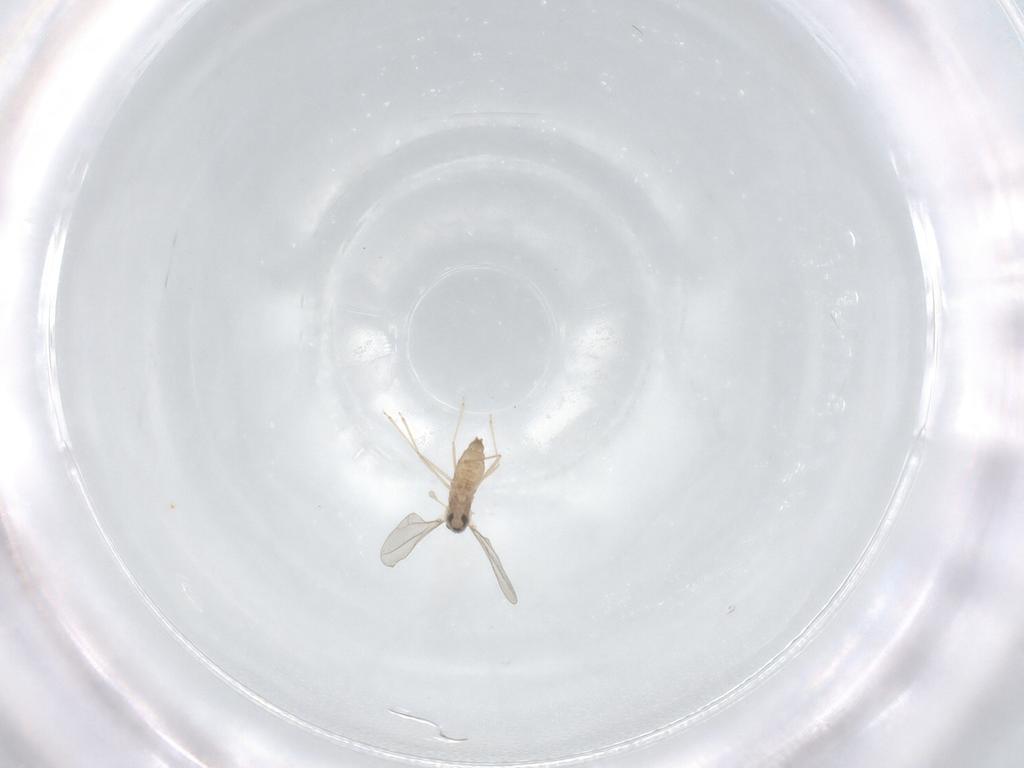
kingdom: Animalia
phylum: Arthropoda
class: Insecta
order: Diptera
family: Cecidomyiidae
